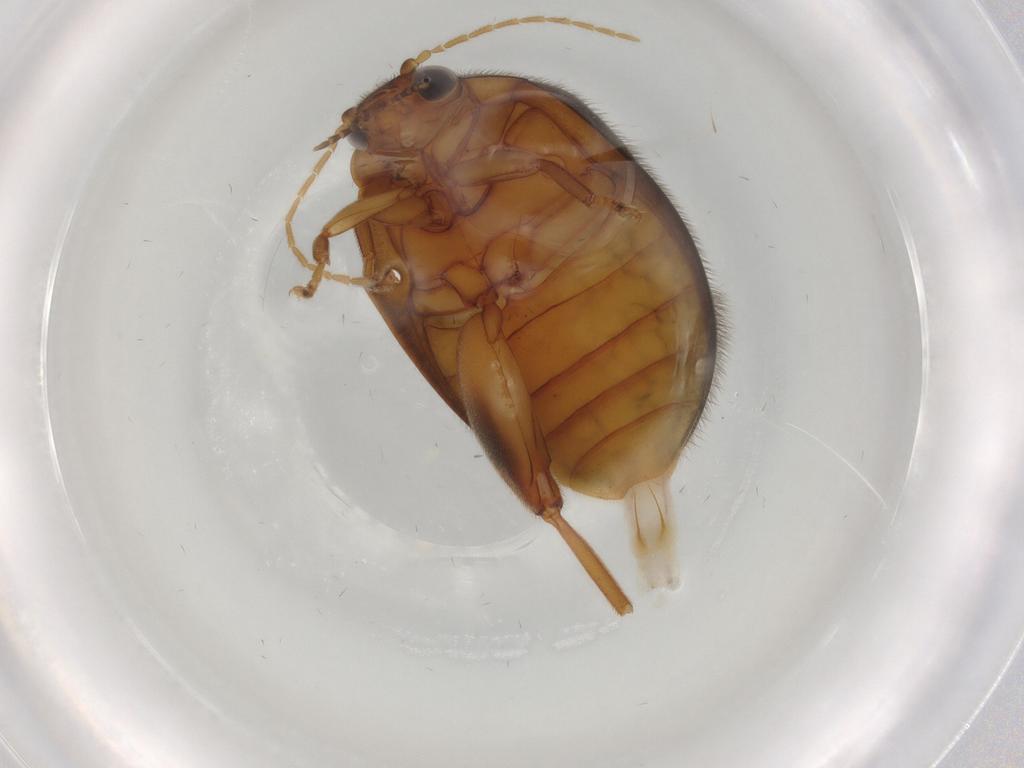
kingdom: Animalia
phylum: Arthropoda
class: Insecta
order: Coleoptera
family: Scirtidae
